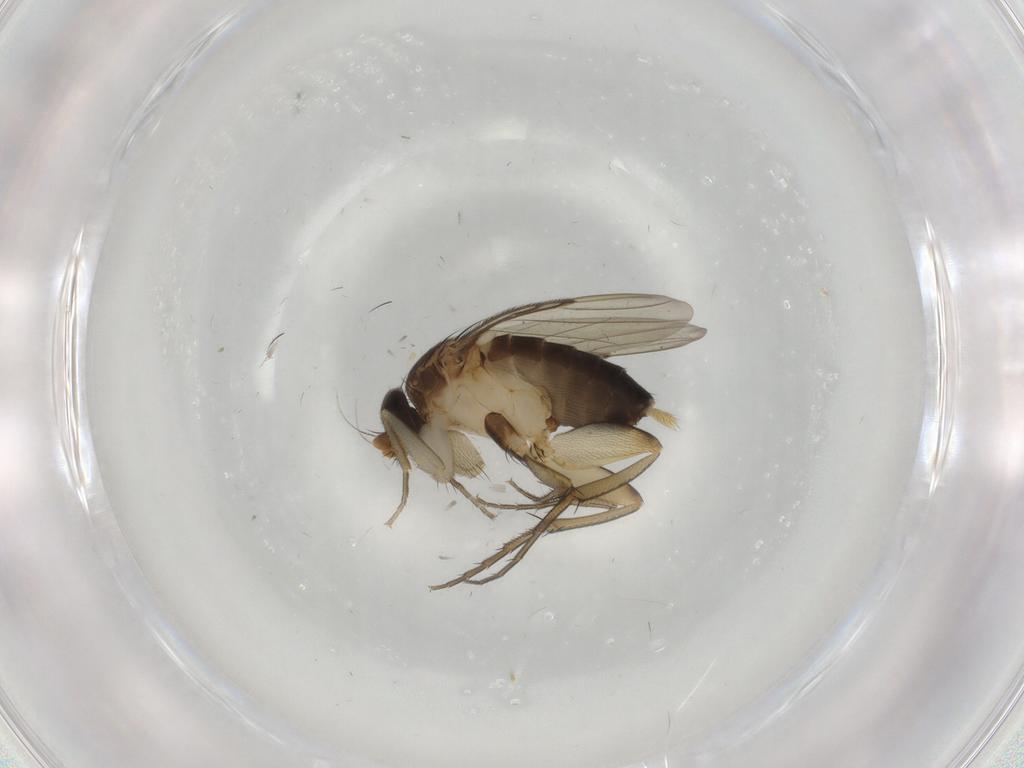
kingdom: Animalia
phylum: Arthropoda
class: Insecta
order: Diptera
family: Phoridae
